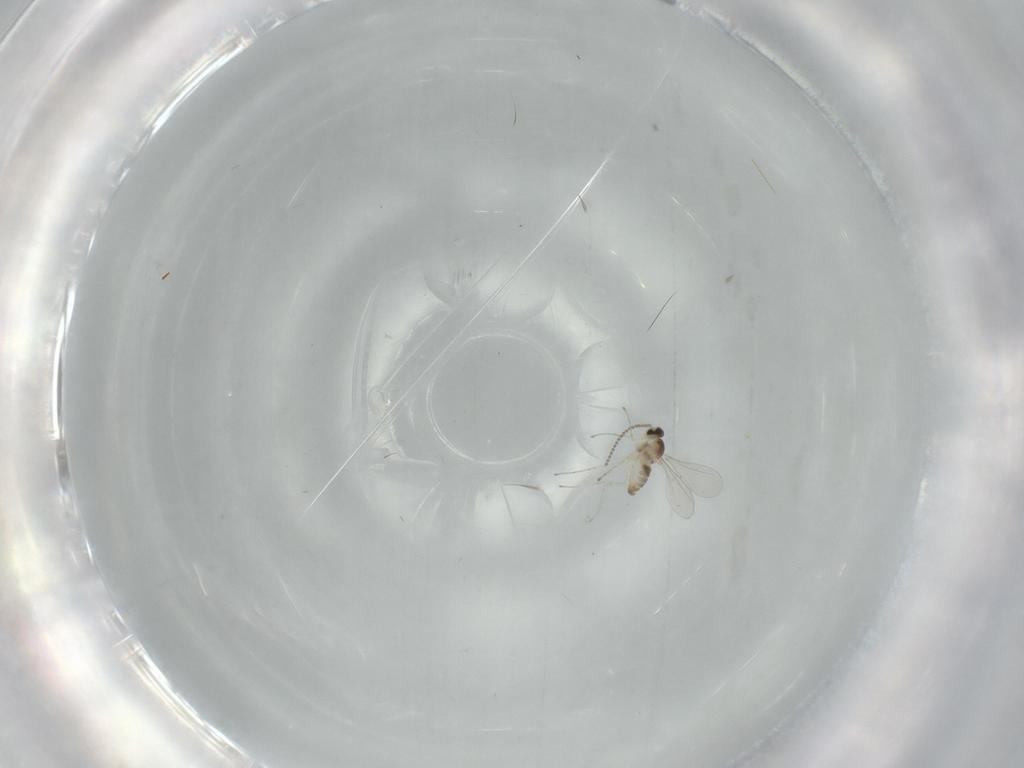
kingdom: Animalia
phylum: Arthropoda
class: Insecta
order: Diptera
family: Cecidomyiidae
